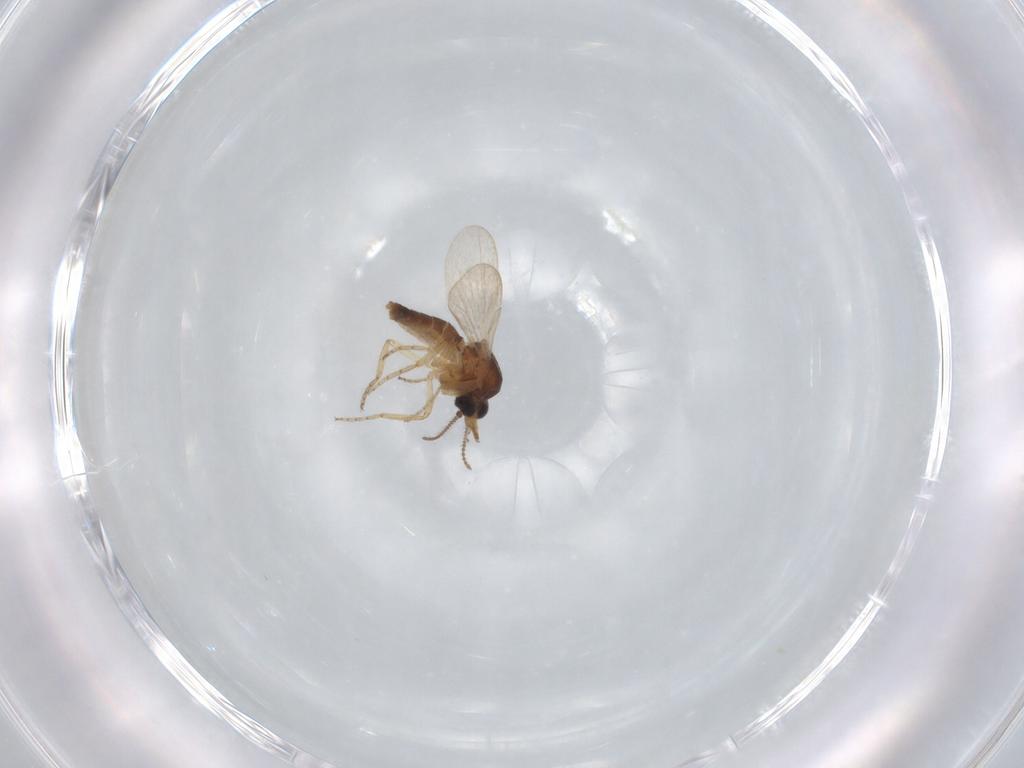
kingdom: Animalia
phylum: Arthropoda
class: Insecta
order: Diptera
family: Ceratopogonidae
